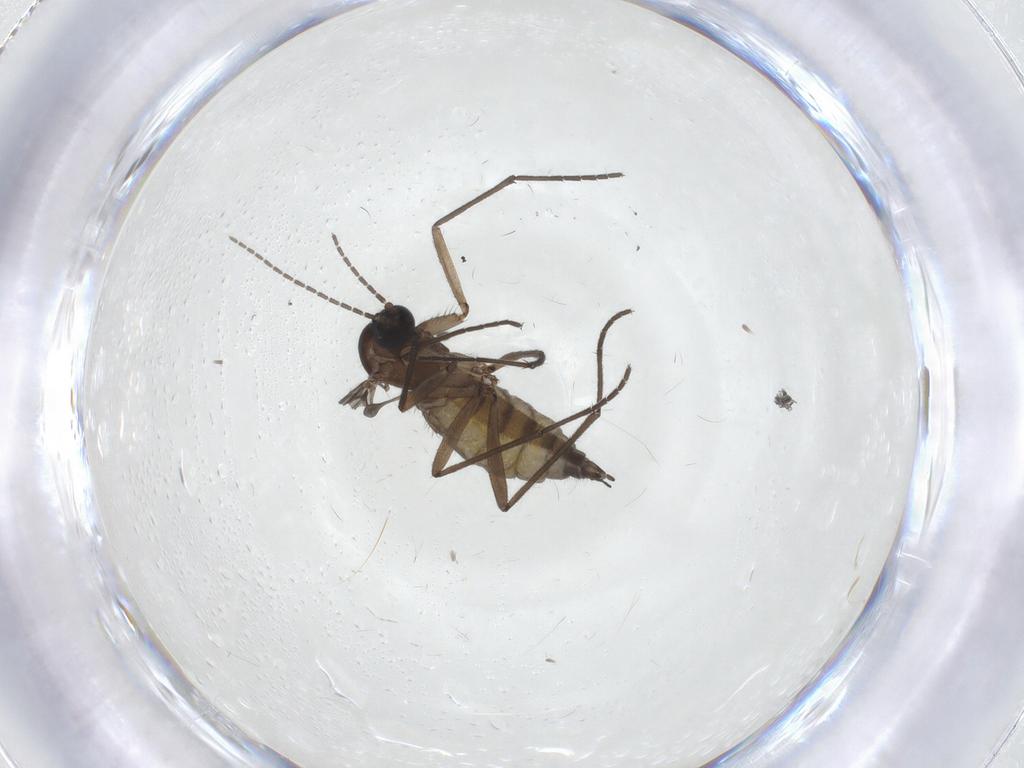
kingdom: Animalia
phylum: Arthropoda
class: Insecta
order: Diptera
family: Sciaridae
